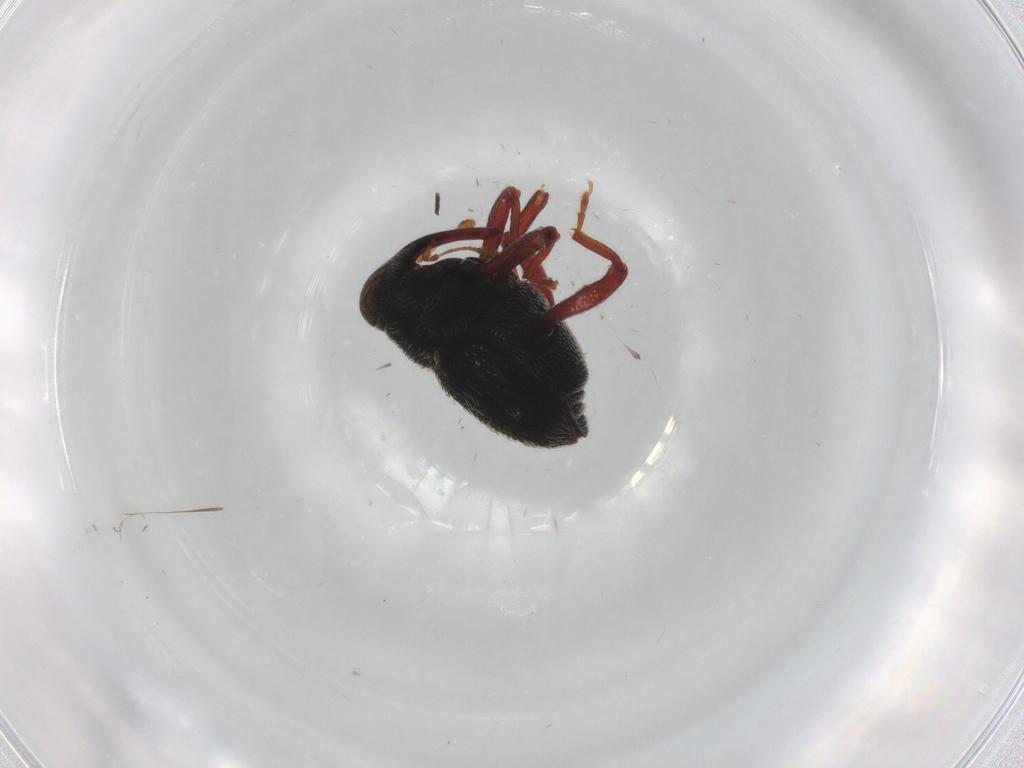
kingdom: Animalia
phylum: Arthropoda
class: Insecta
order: Coleoptera
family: Curculionidae
